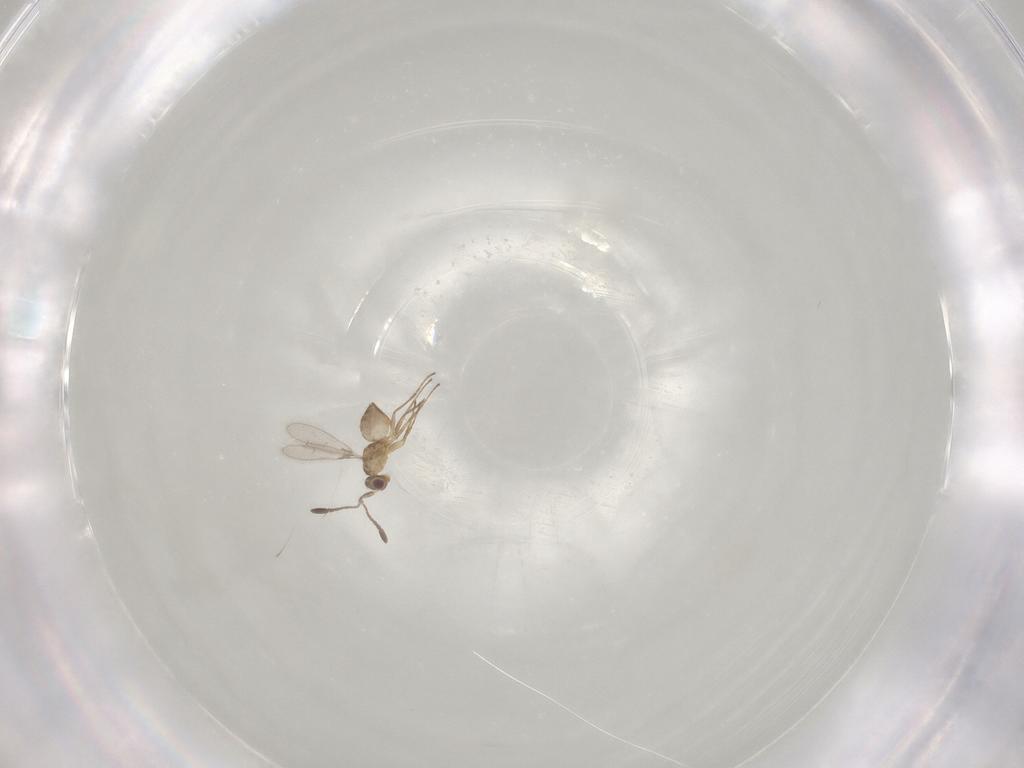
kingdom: Animalia
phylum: Arthropoda
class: Insecta
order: Hymenoptera
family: Mymaridae
